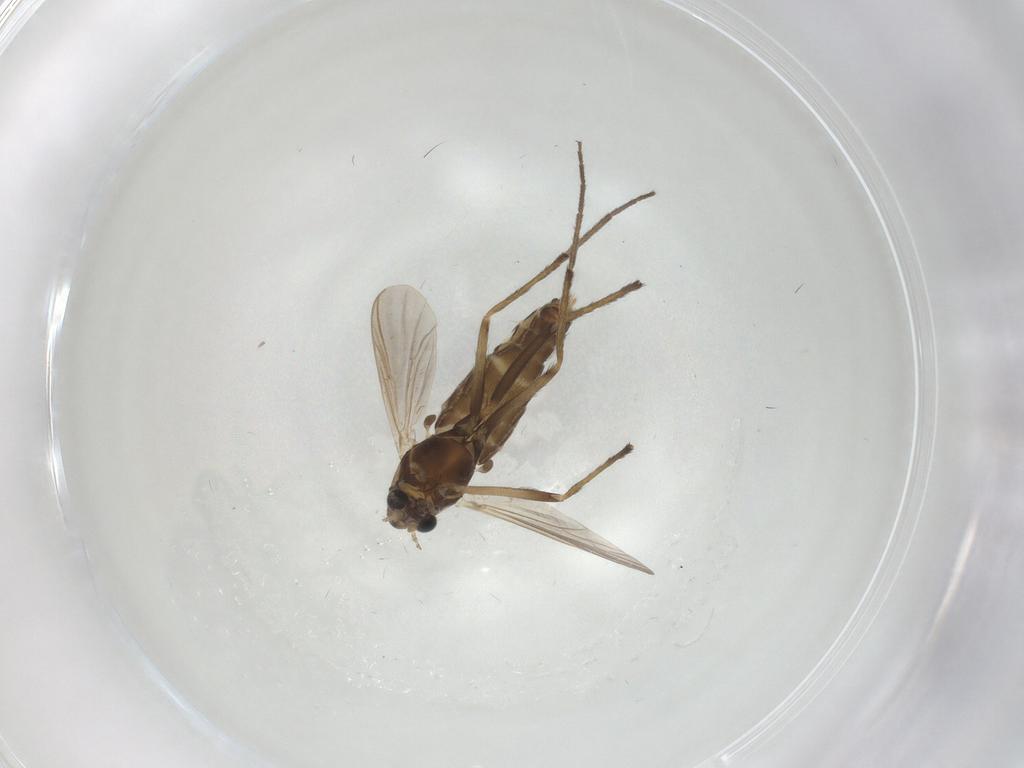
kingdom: Animalia
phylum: Arthropoda
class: Insecta
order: Diptera
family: Chironomidae
